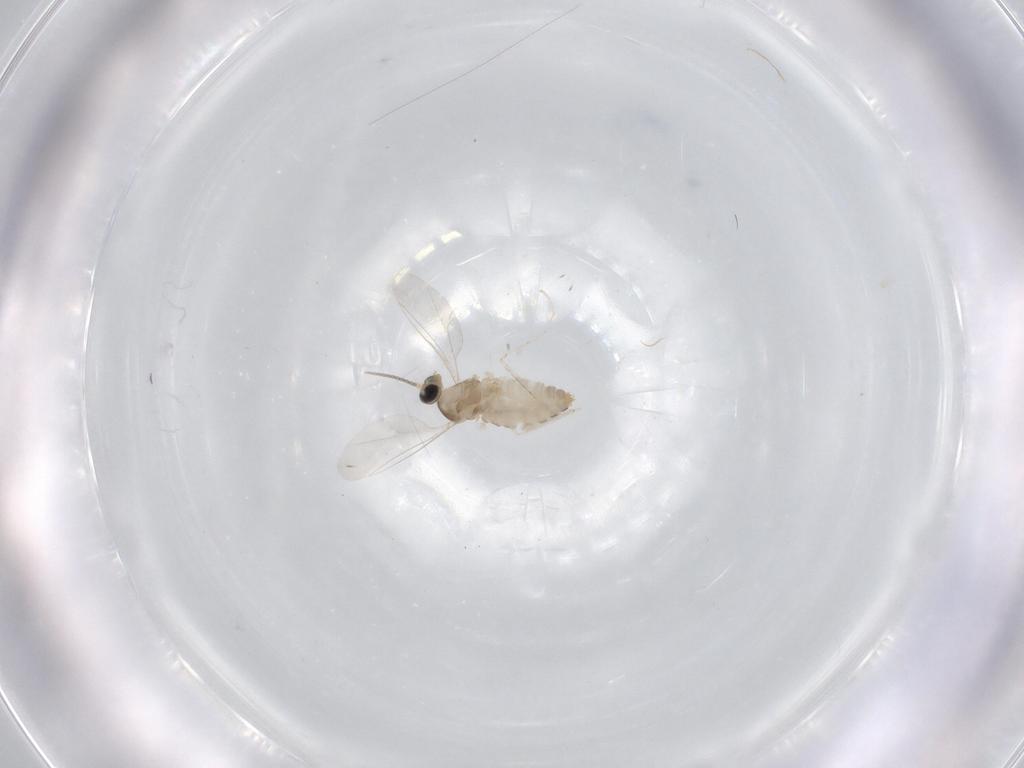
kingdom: Animalia
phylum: Arthropoda
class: Insecta
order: Diptera
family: Cecidomyiidae
